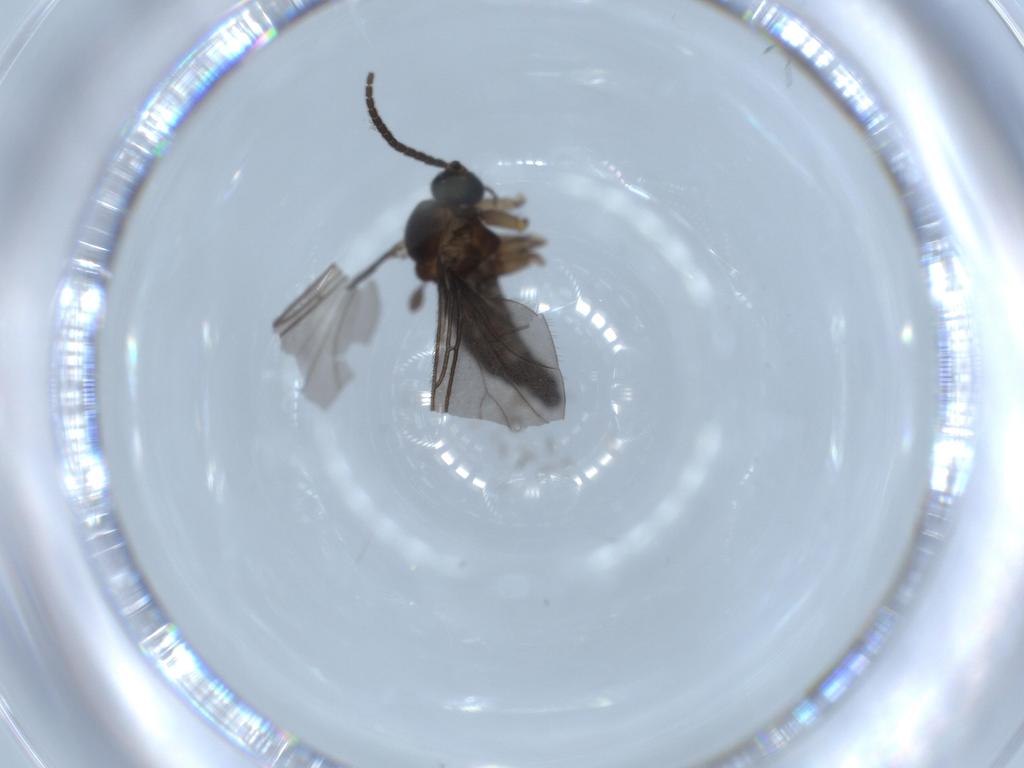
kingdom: Animalia
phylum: Arthropoda
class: Insecta
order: Diptera
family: Sciaridae
